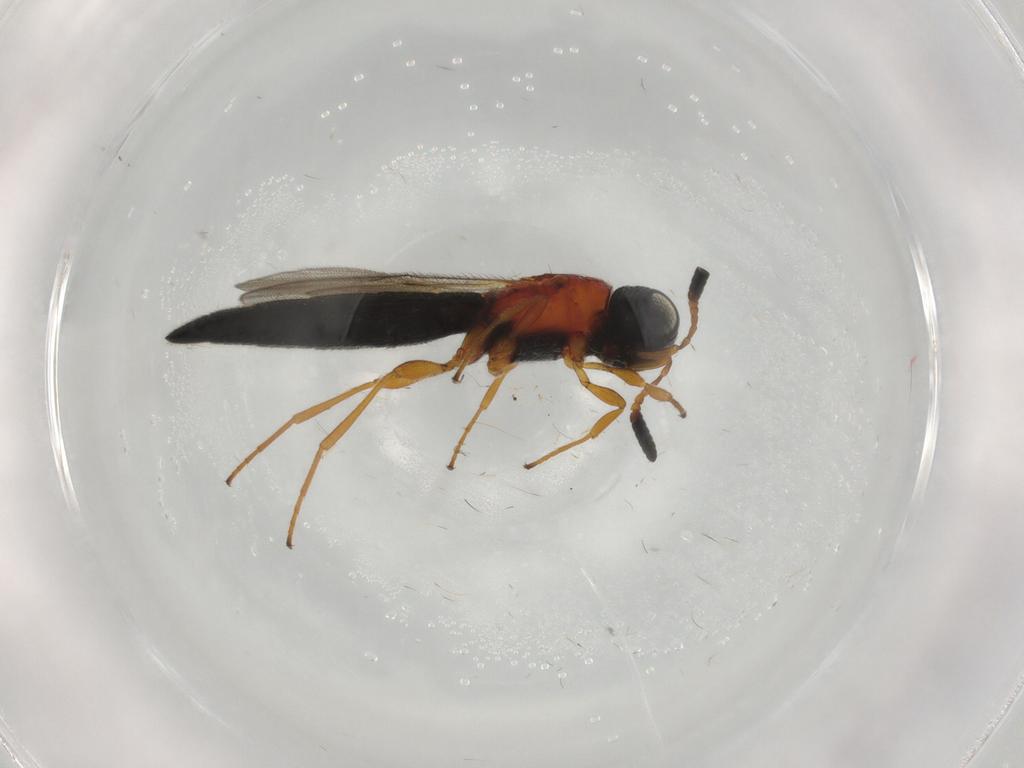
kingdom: Animalia
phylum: Arthropoda
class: Insecta
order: Hymenoptera
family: Scelionidae
